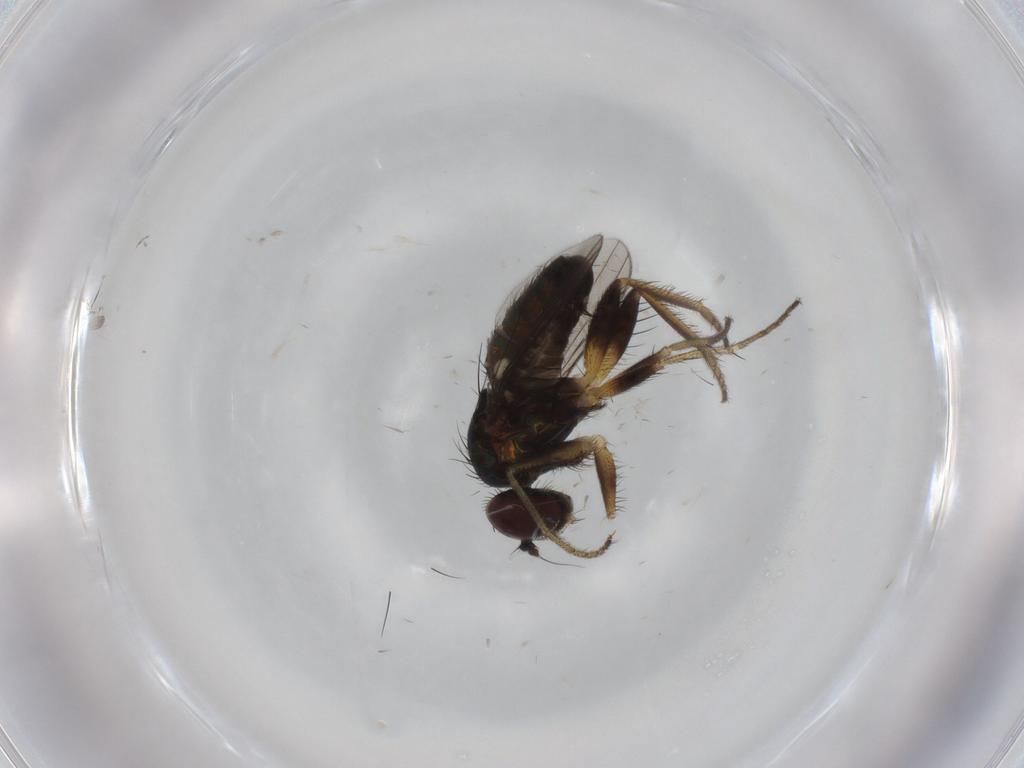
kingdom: Animalia
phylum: Arthropoda
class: Insecta
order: Diptera
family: Dolichopodidae
